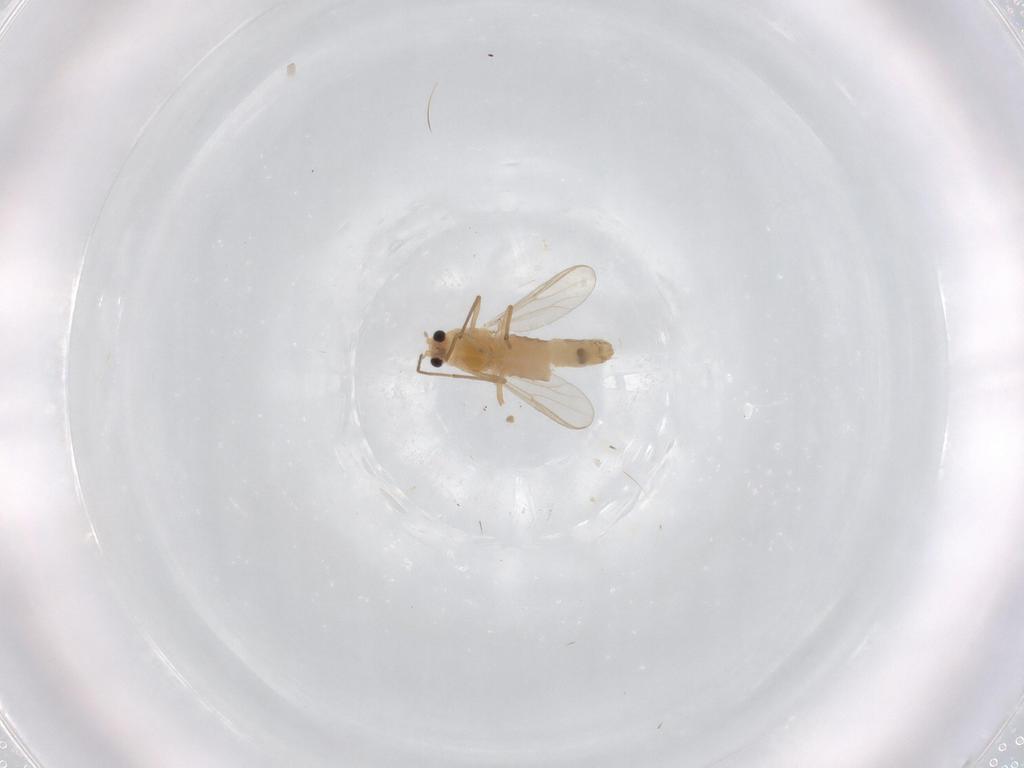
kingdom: Animalia
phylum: Arthropoda
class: Insecta
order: Diptera
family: Chironomidae
